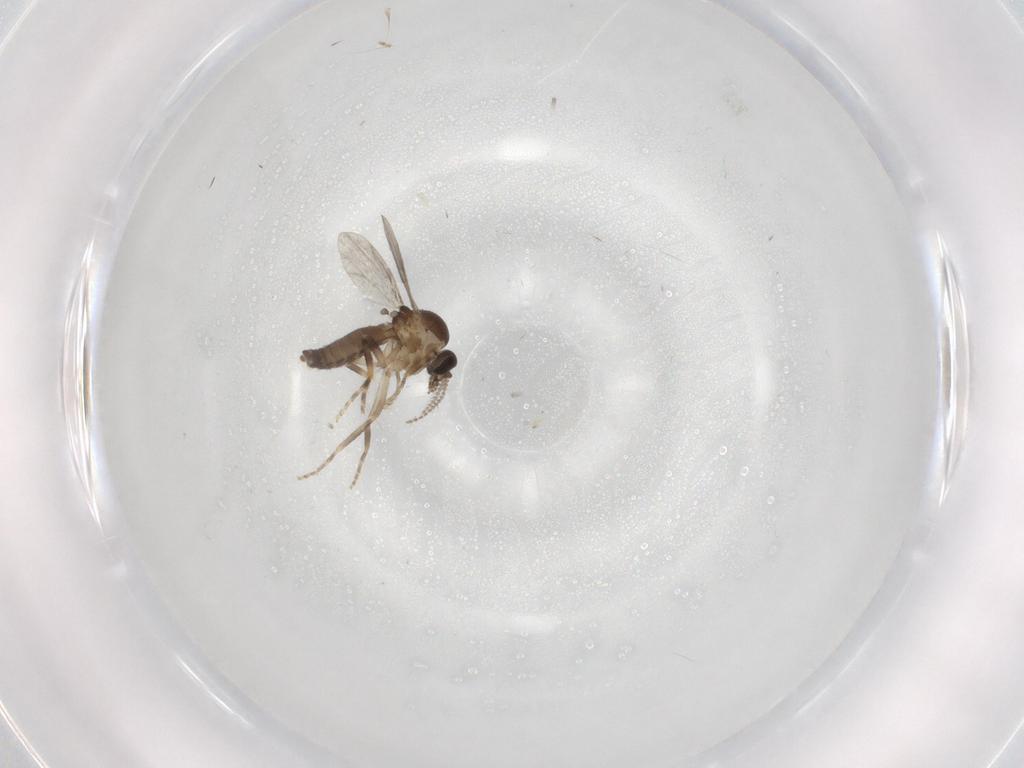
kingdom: Animalia
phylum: Arthropoda
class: Insecta
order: Diptera
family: Ceratopogonidae
